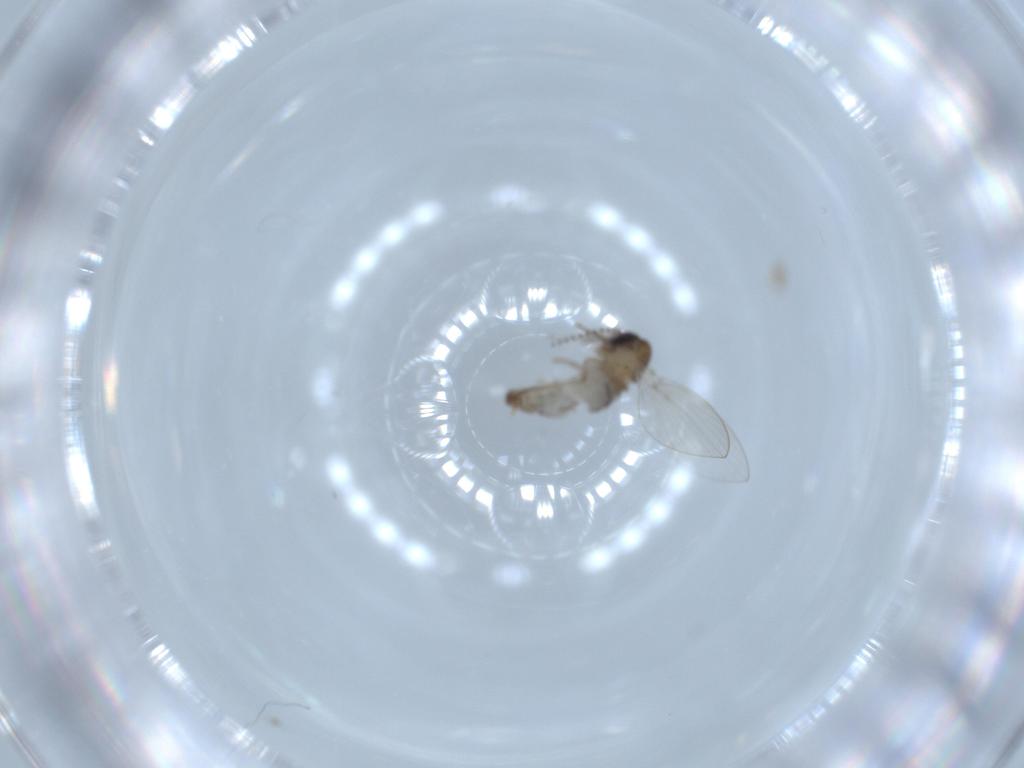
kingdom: Animalia
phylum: Arthropoda
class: Insecta
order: Diptera
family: Psychodidae
